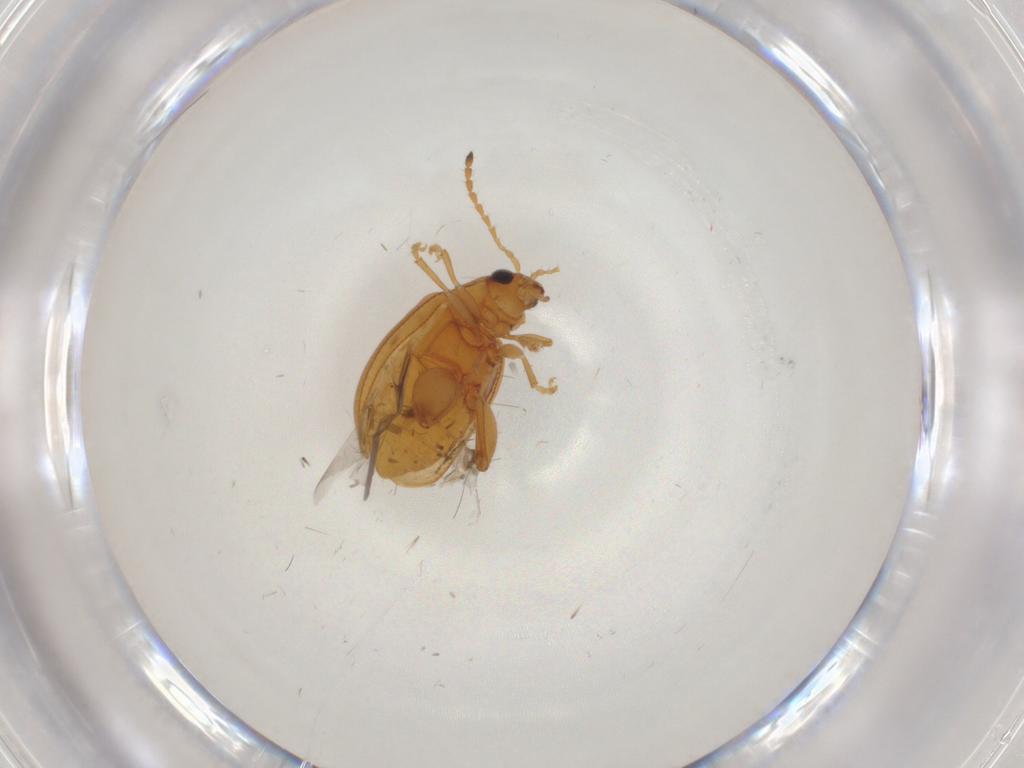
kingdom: Animalia
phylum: Arthropoda
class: Insecta
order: Coleoptera
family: Chrysomelidae
